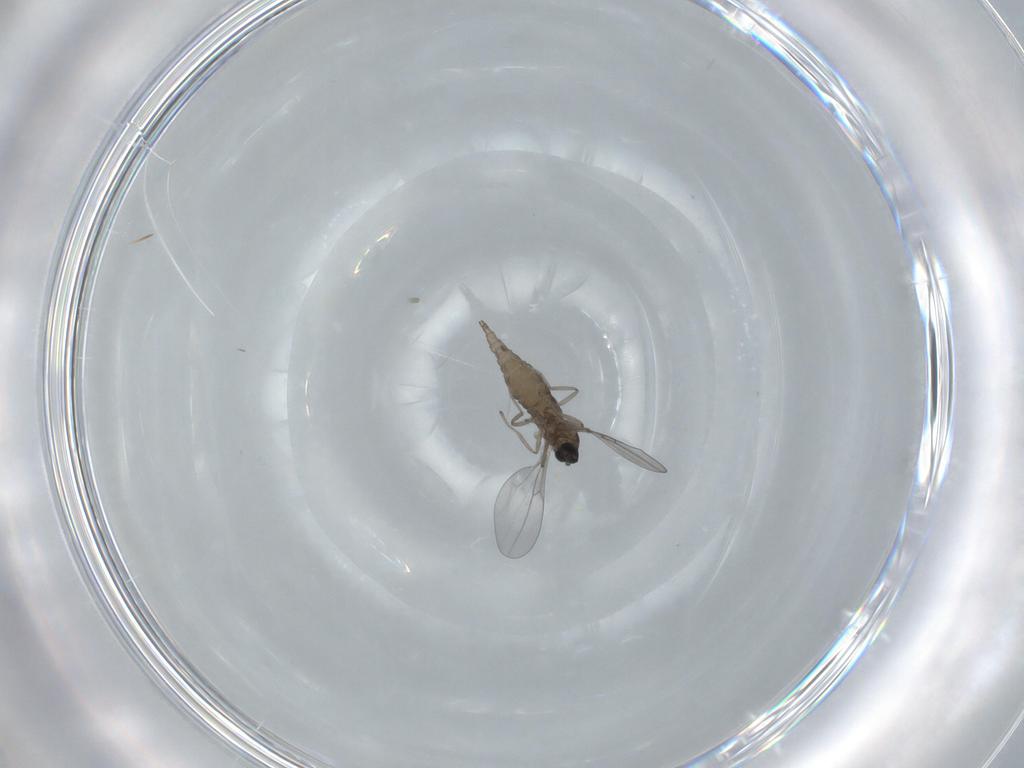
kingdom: Animalia
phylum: Arthropoda
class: Insecta
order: Diptera
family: Cecidomyiidae
